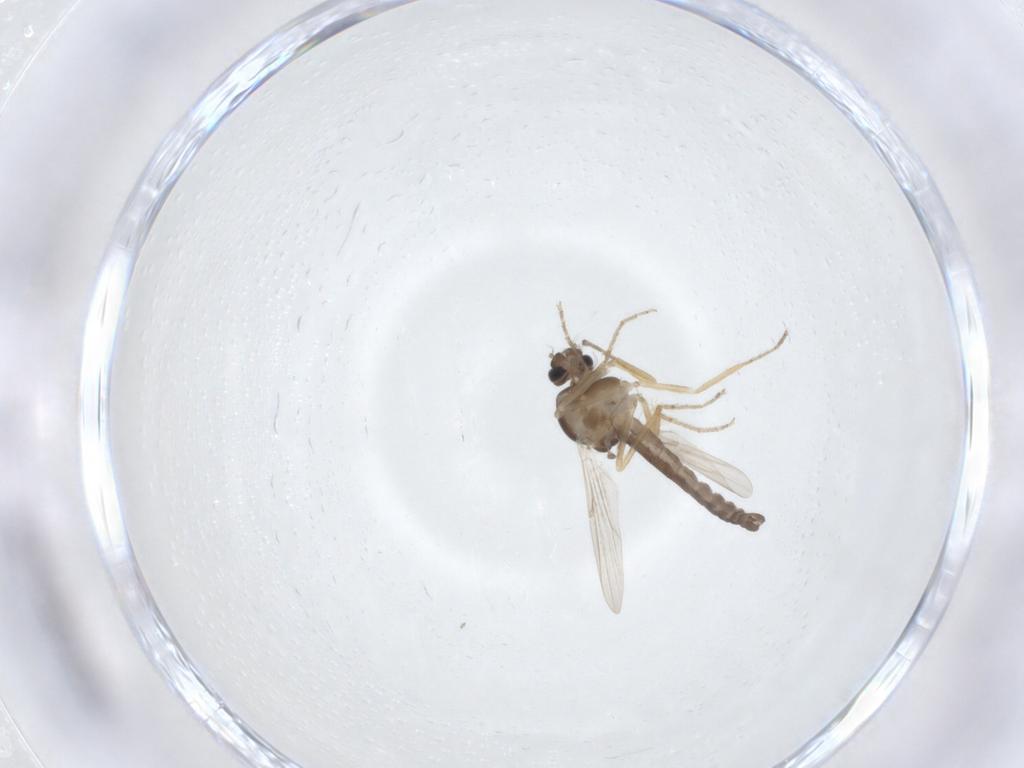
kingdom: Animalia
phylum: Arthropoda
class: Insecta
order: Diptera
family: Ceratopogonidae
